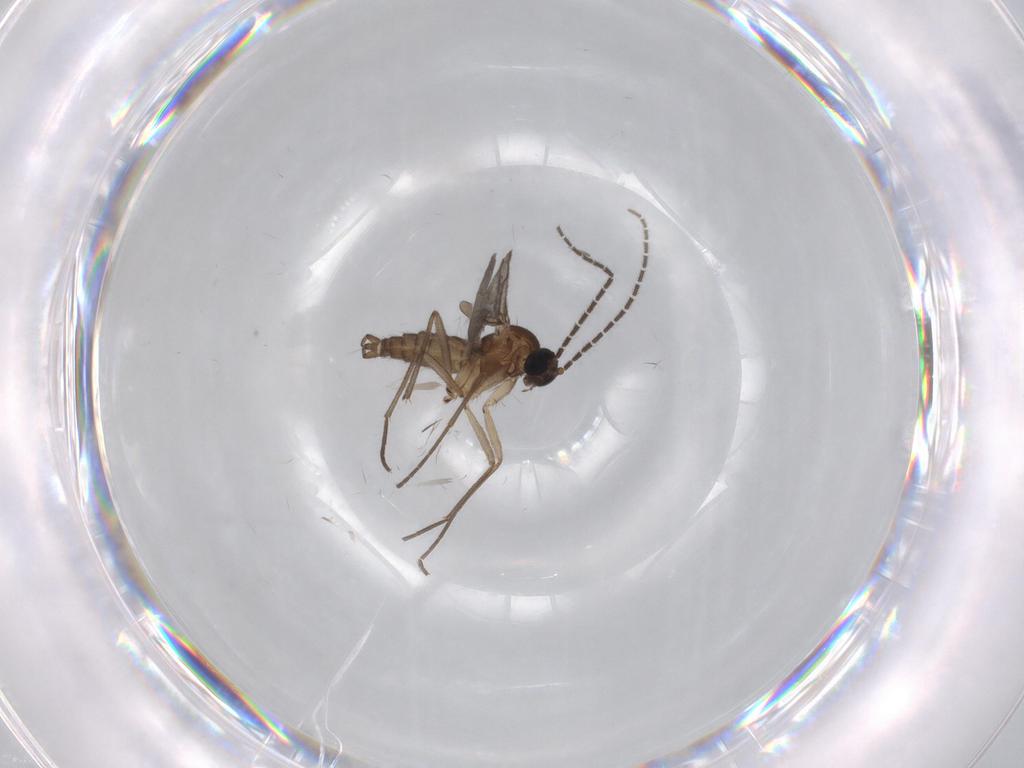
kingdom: Animalia
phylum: Arthropoda
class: Insecta
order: Diptera
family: Sciaridae
